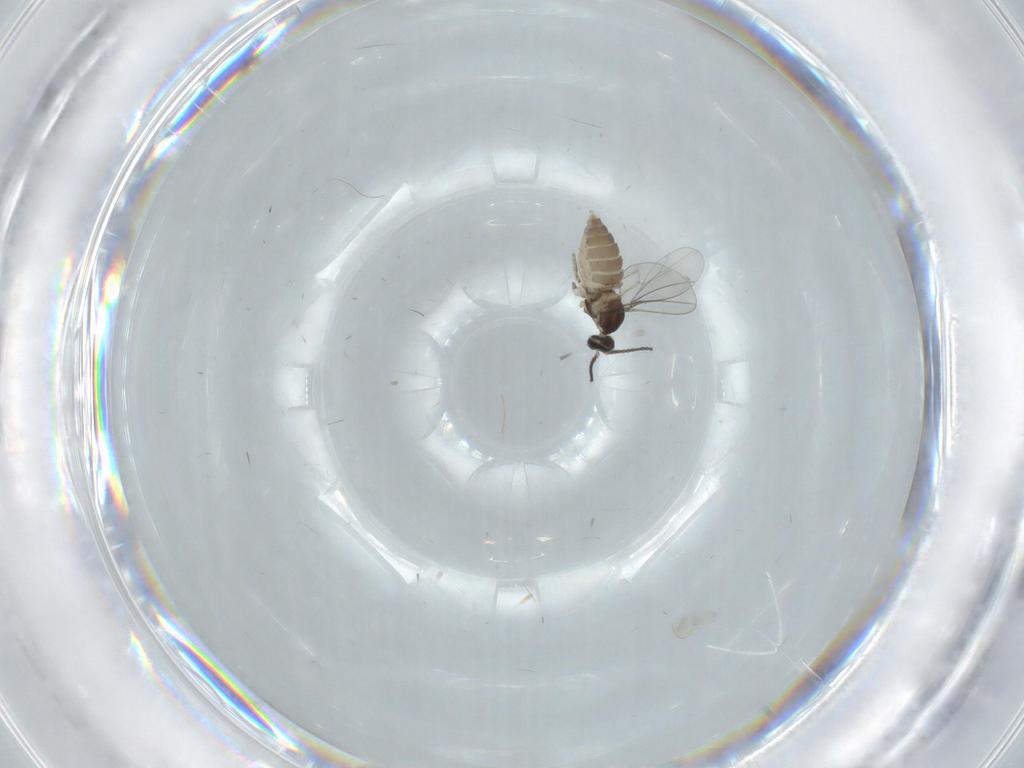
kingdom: Animalia
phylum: Arthropoda
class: Insecta
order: Diptera
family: Cecidomyiidae
